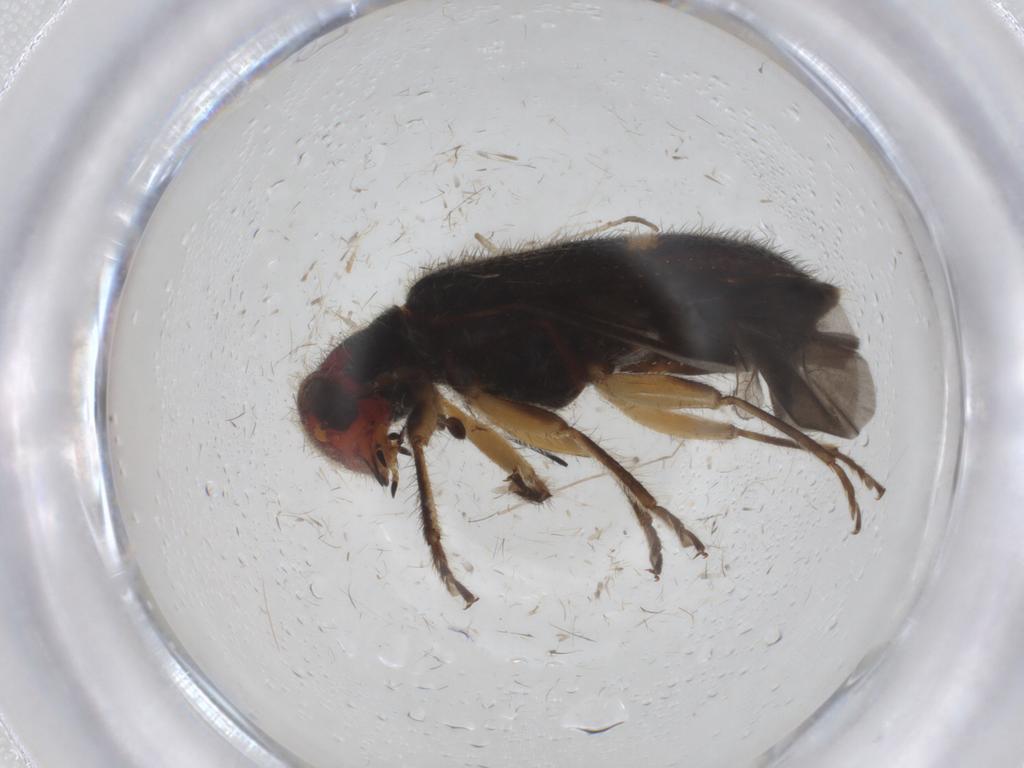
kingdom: Animalia
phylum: Arthropoda
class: Insecta
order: Coleoptera
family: Cleridae
